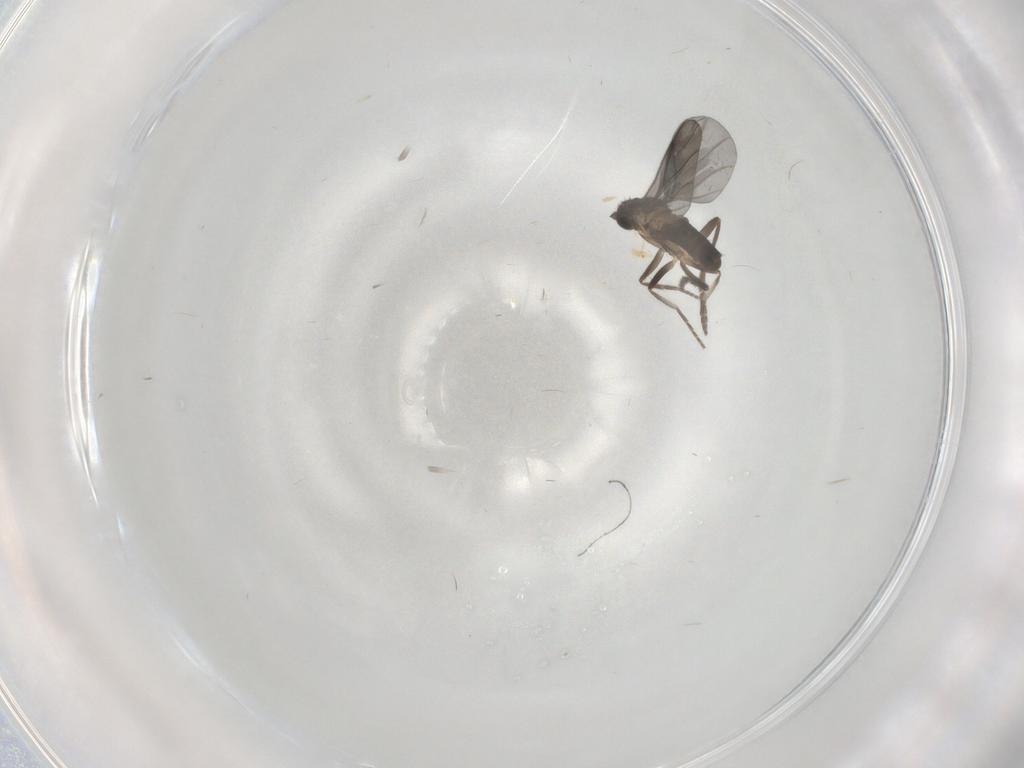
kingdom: Animalia
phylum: Arthropoda
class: Insecta
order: Diptera
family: Phoridae
